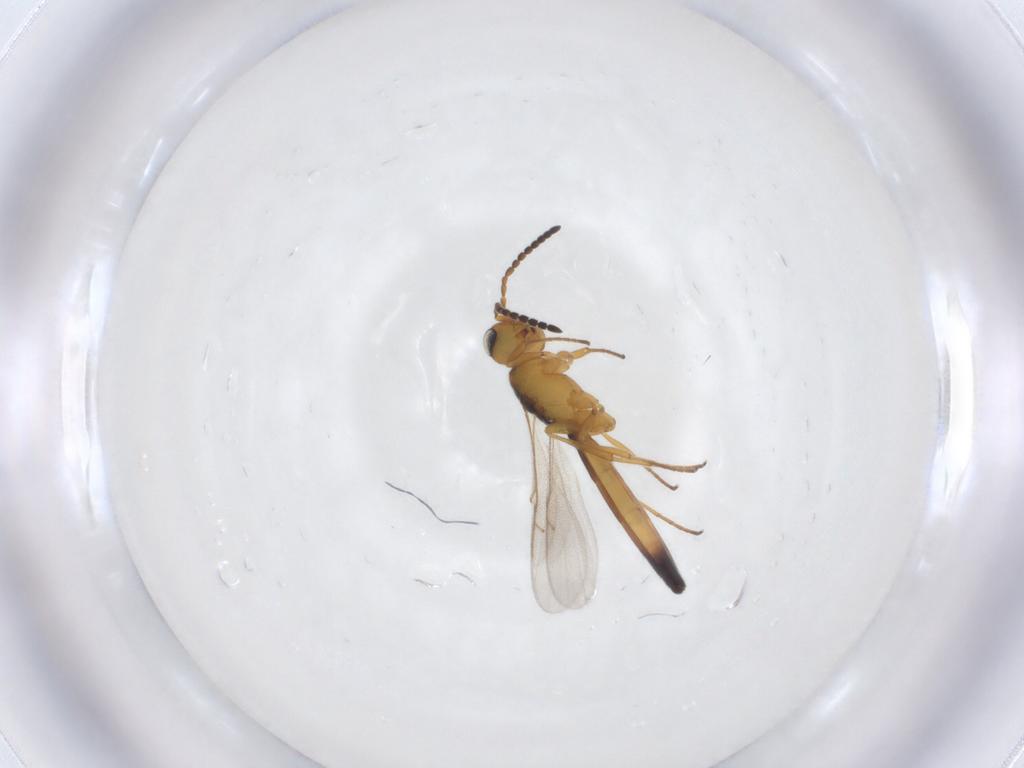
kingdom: Animalia
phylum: Arthropoda
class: Insecta
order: Hymenoptera
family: Scelionidae
